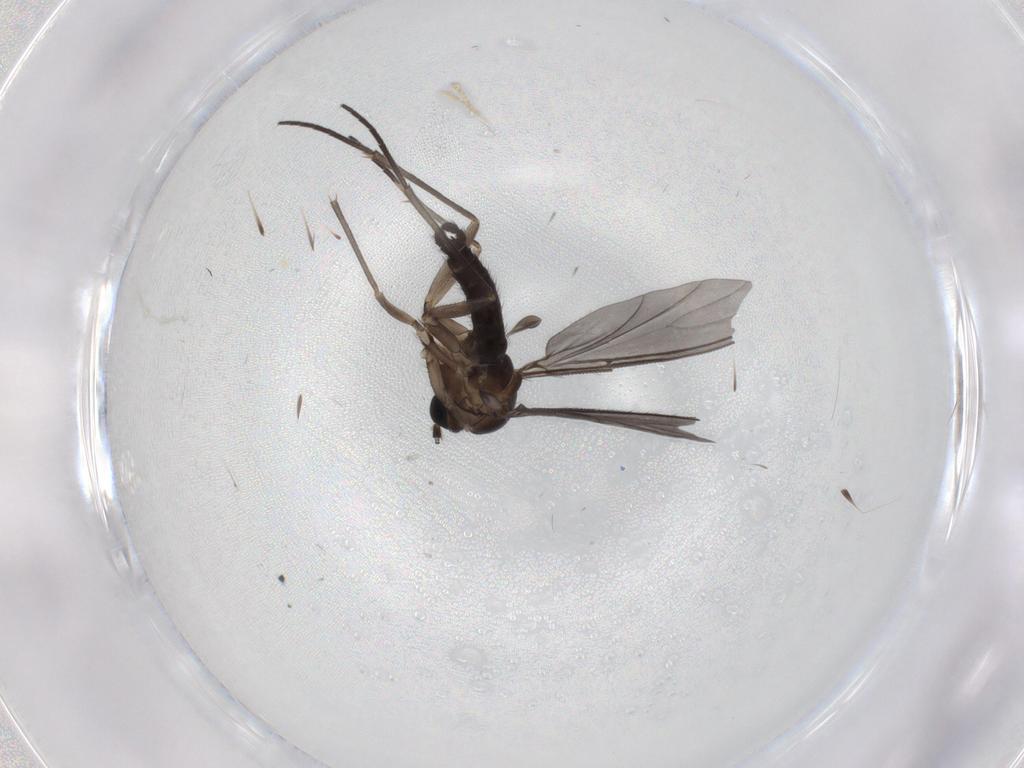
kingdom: Animalia
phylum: Arthropoda
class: Insecta
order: Diptera
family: Sciaridae
